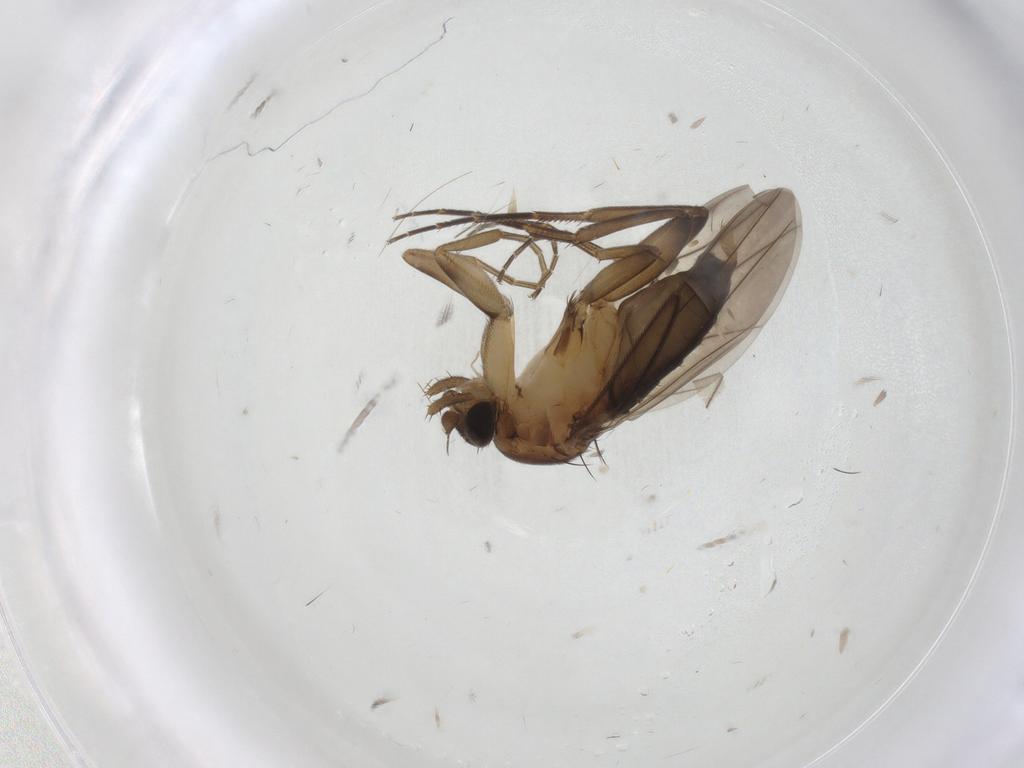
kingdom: Animalia
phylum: Arthropoda
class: Insecta
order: Diptera
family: Phoridae
